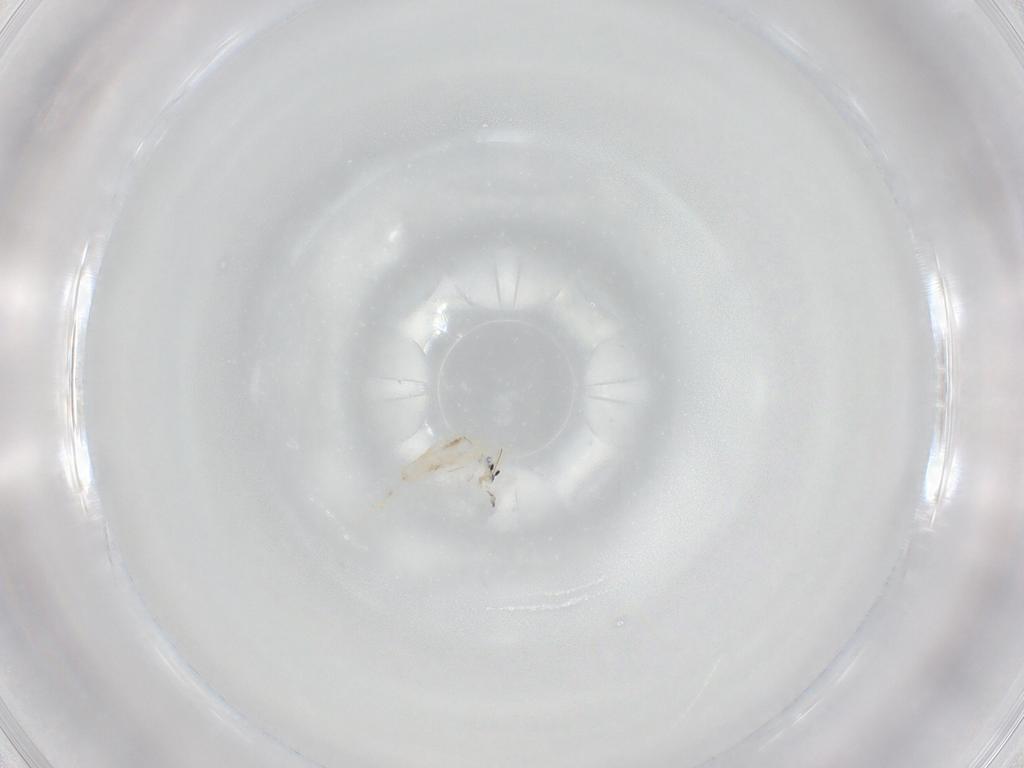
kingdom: Animalia
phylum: Arthropoda
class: Collembola
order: Entomobryomorpha
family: Entomobryidae
